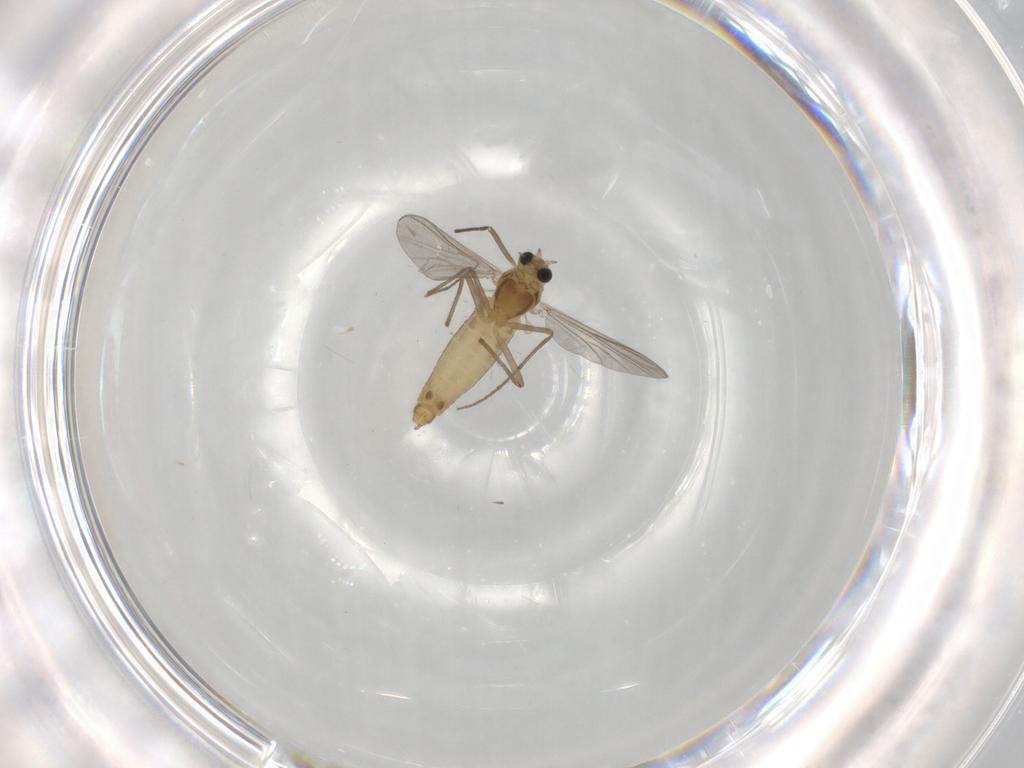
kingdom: Animalia
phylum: Arthropoda
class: Insecta
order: Diptera
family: Chironomidae
